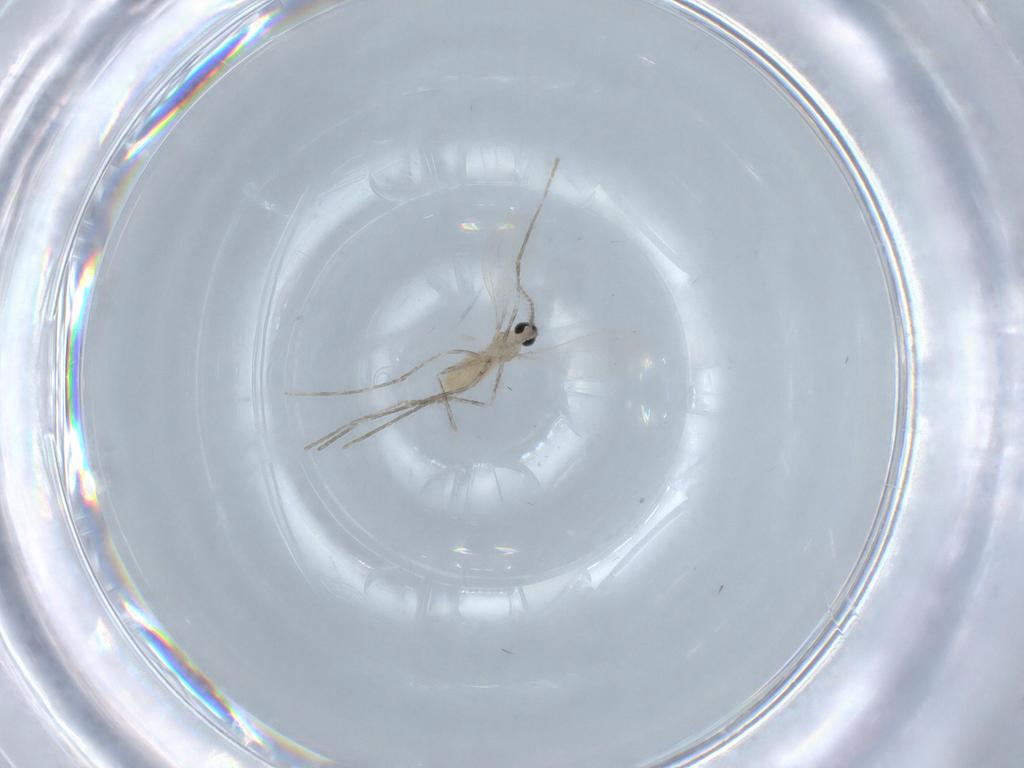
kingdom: Animalia
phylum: Arthropoda
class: Insecta
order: Diptera
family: Cecidomyiidae
